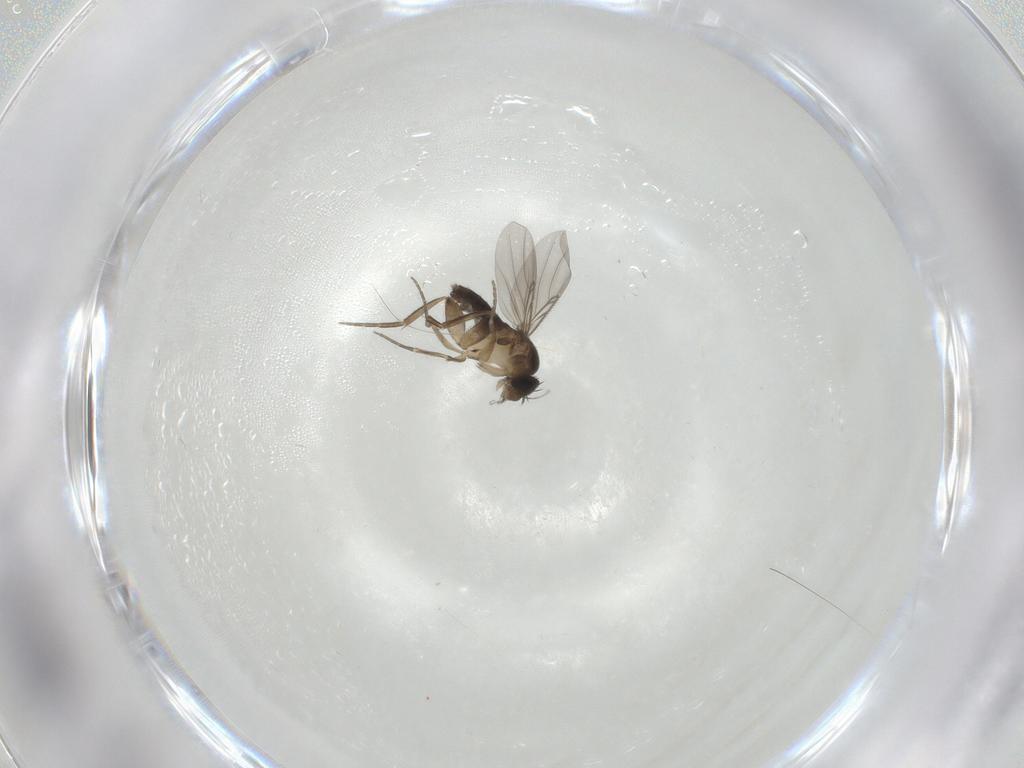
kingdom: Animalia
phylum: Arthropoda
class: Insecta
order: Diptera
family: Phoridae
